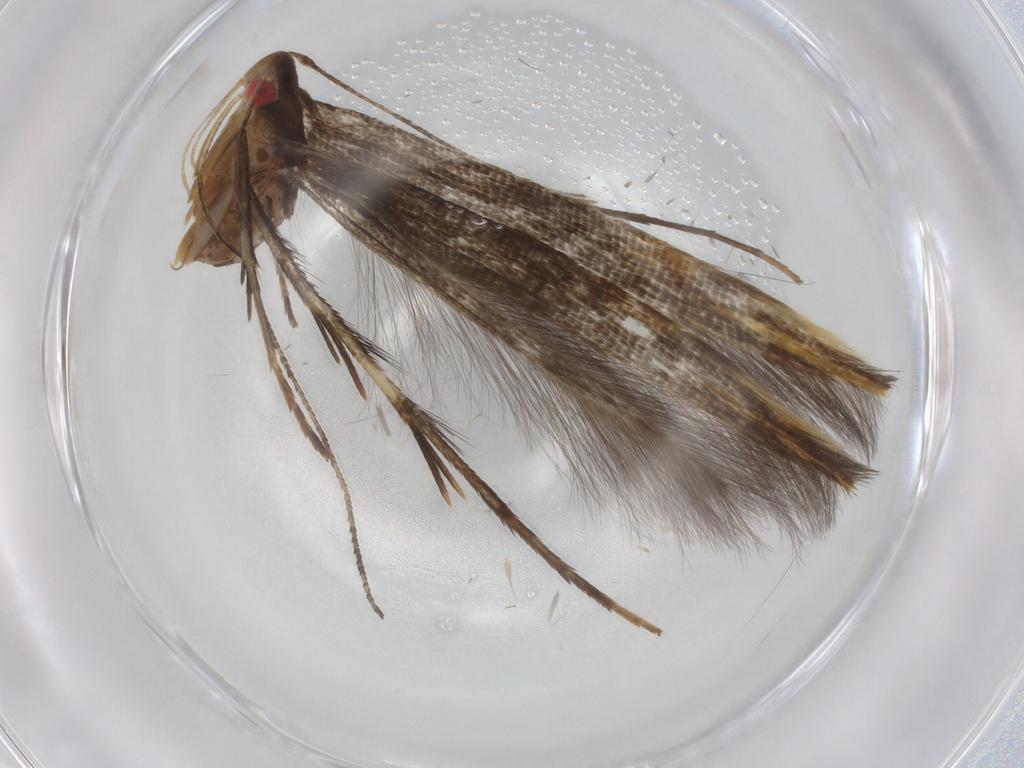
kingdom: Animalia
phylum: Arthropoda
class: Insecta
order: Lepidoptera
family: Cosmopterigidae
